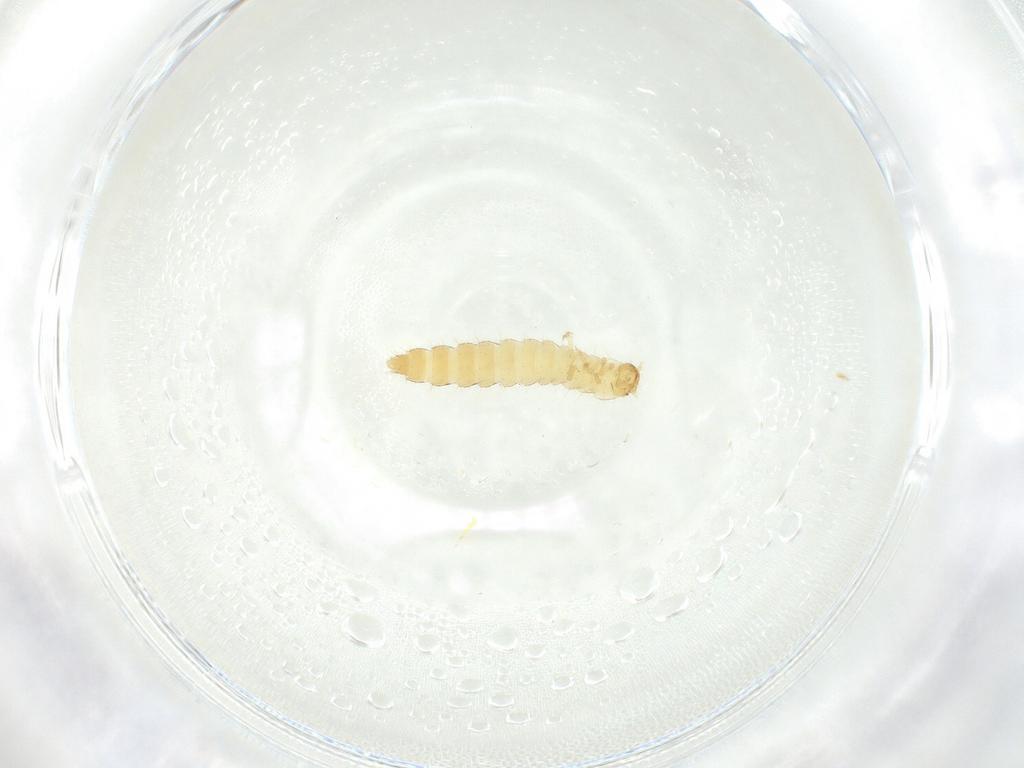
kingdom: Animalia
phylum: Arthropoda
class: Insecta
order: Coleoptera
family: Staphylinidae
